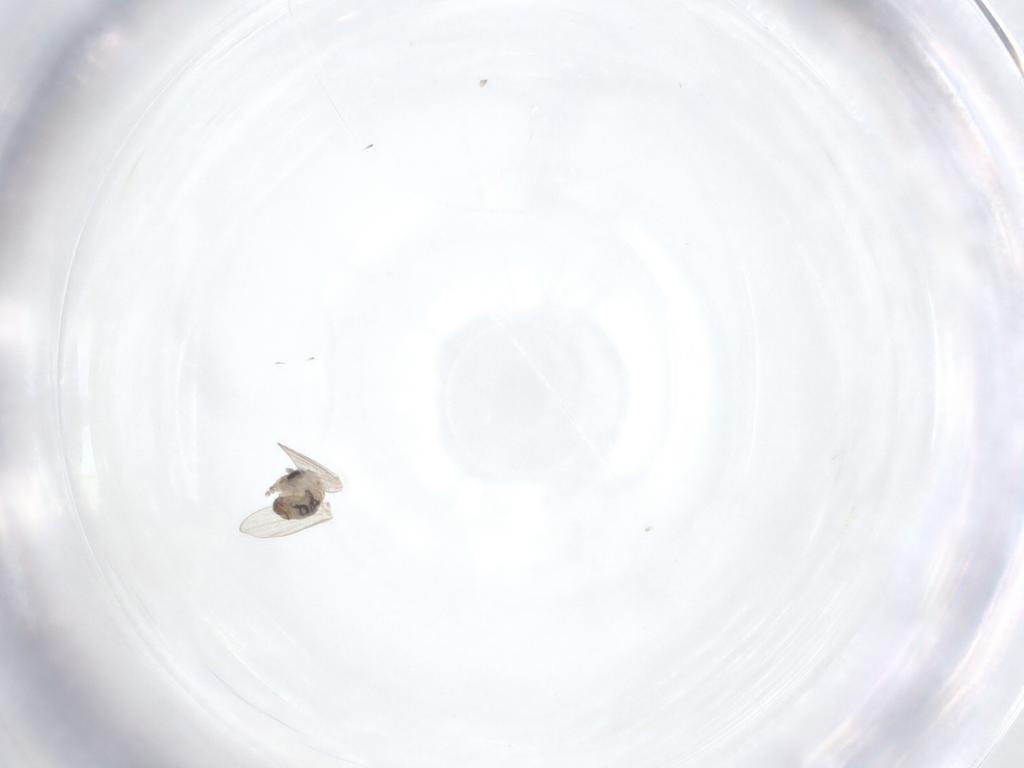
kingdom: Animalia
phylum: Arthropoda
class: Insecta
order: Diptera
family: Psychodidae
